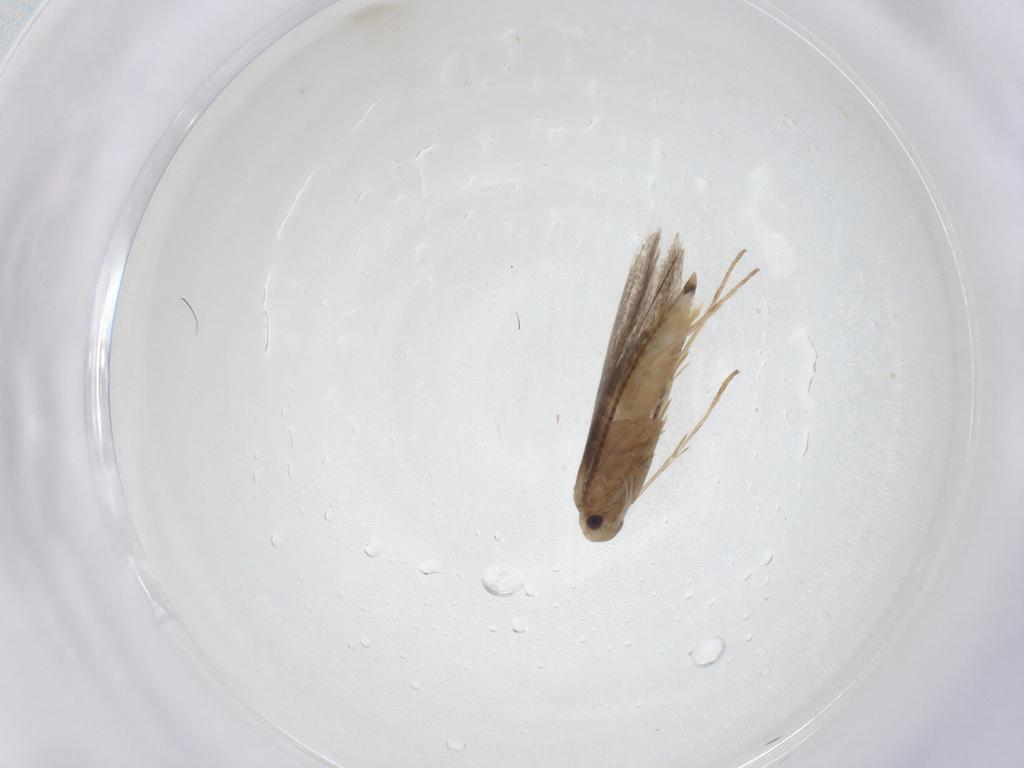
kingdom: Animalia
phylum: Arthropoda
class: Insecta
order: Lepidoptera
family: Gracillariidae
